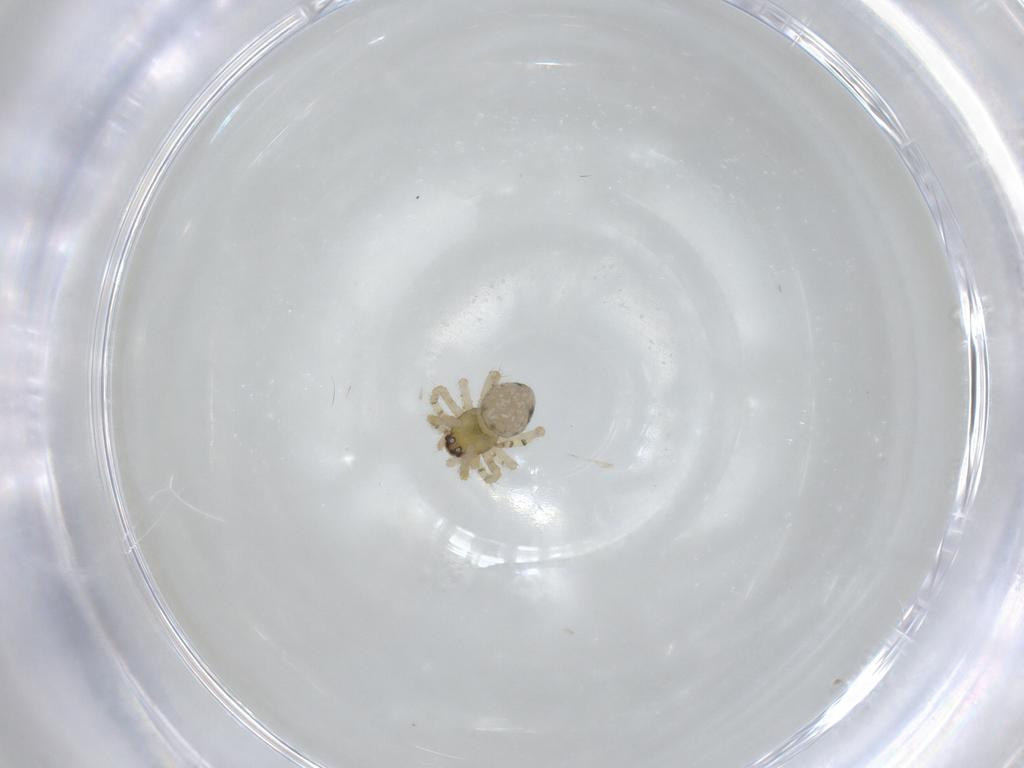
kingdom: Animalia
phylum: Arthropoda
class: Arachnida
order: Araneae
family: Theridiidae
